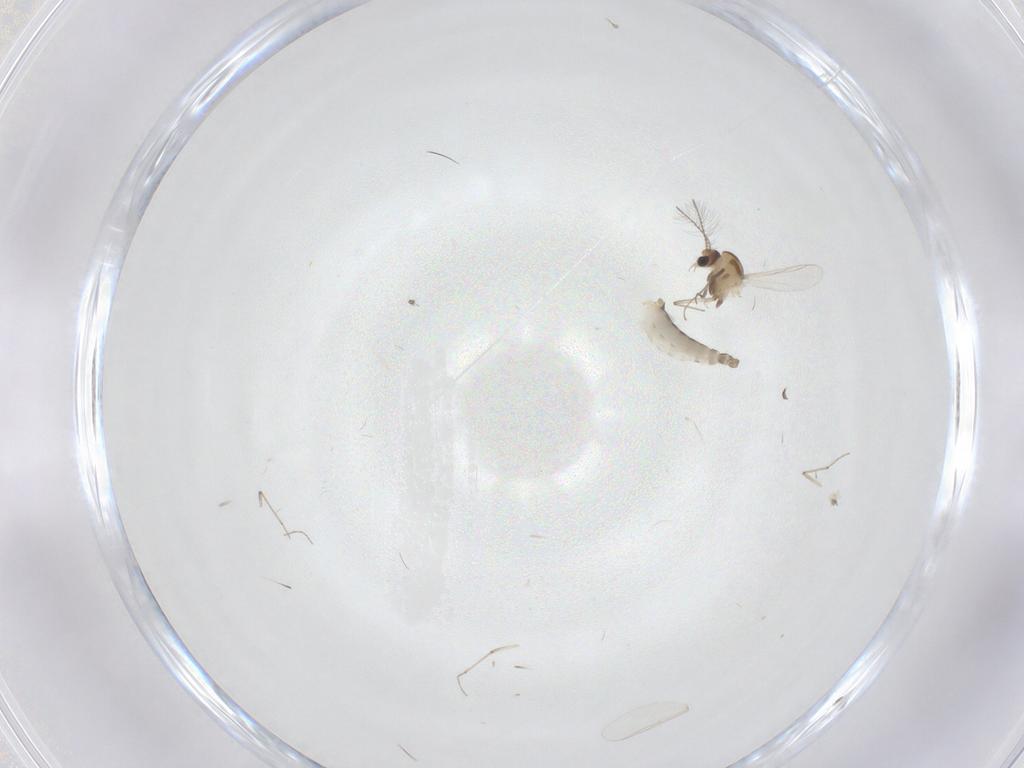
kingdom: Animalia
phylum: Arthropoda
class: Insecta
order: Diptera
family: Chironomidae
